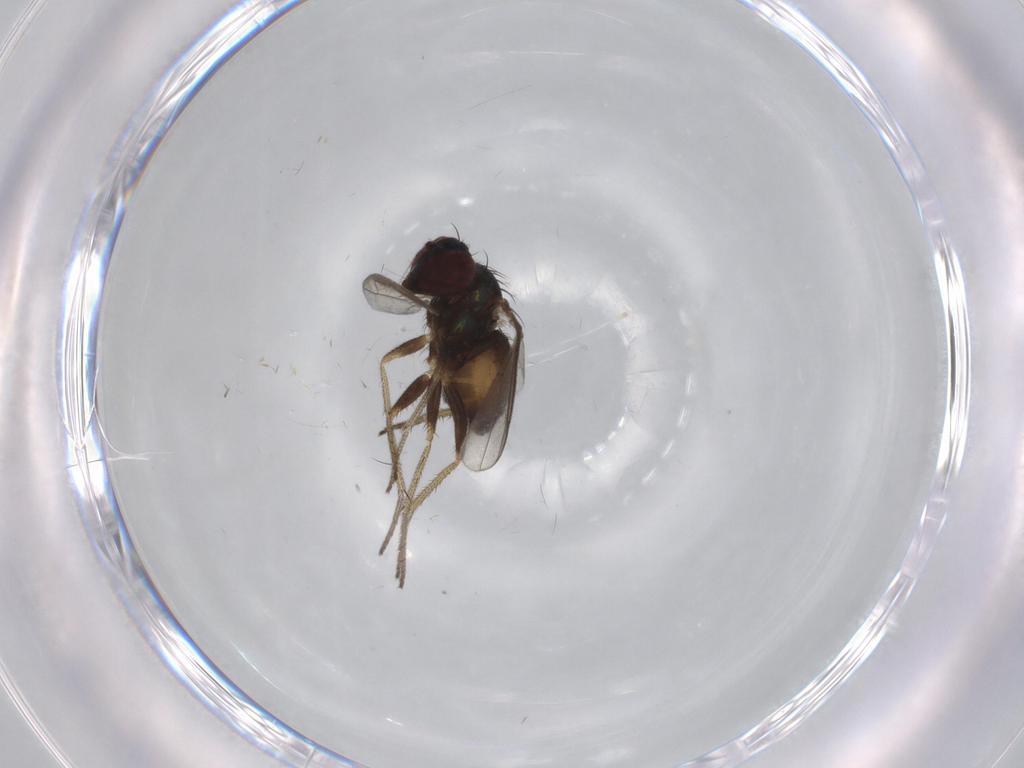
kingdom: Animalia
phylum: Arthropoda
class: Insecta
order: Diptera
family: Dolichopodidae
